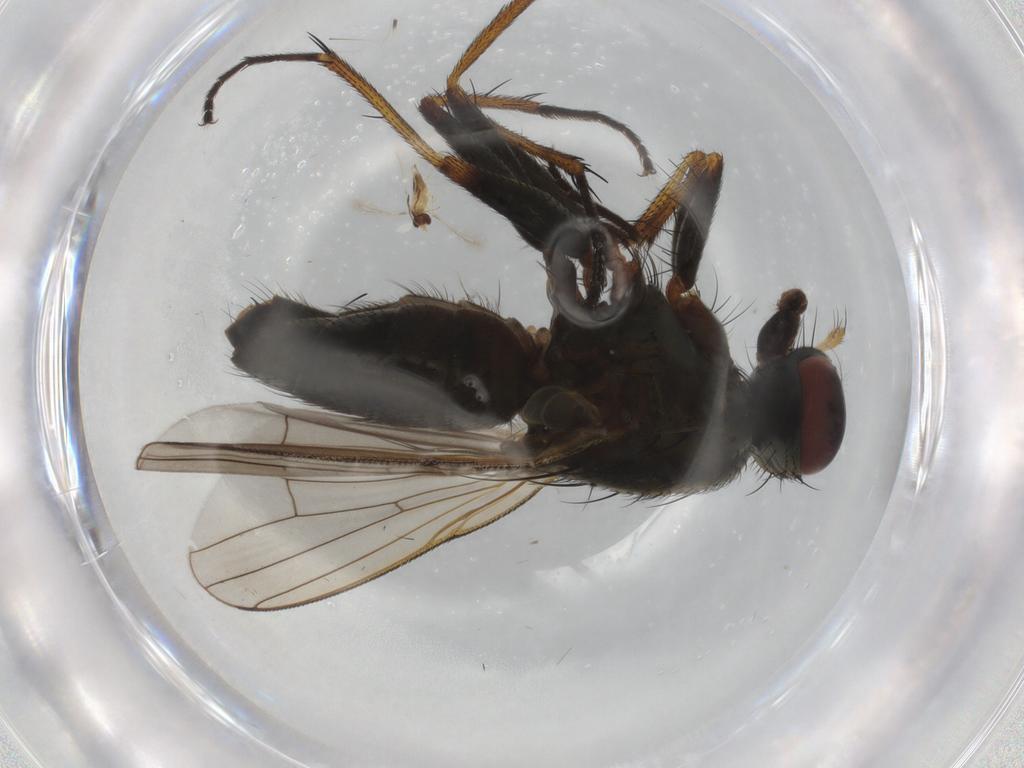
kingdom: Animalia
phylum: Arthropoda
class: Insecta
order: Diptera
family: Muscidae
